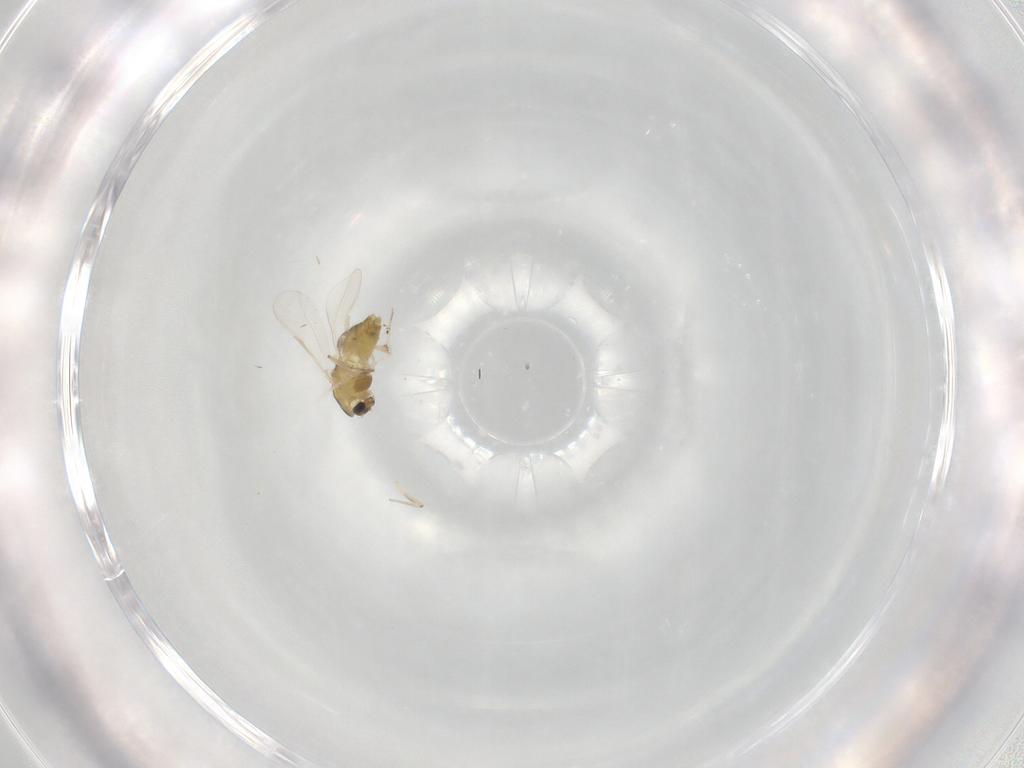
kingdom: Animalia
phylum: Arthropoda
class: Insecta
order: Diptera
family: Chironomidae
